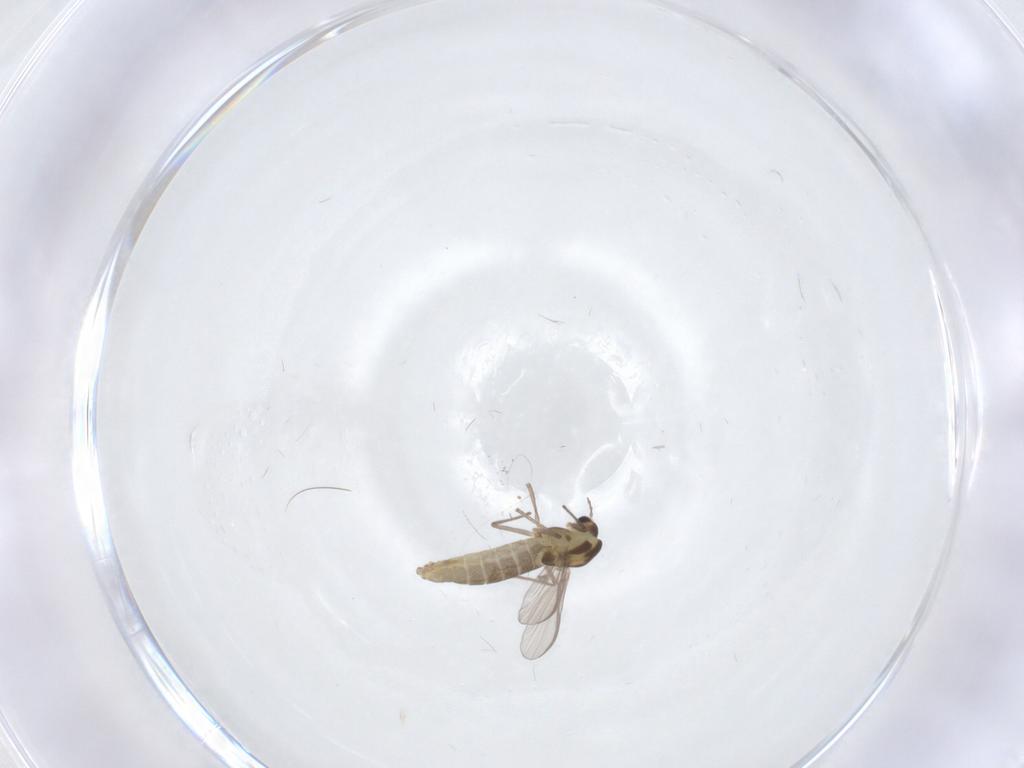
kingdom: Animalia
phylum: Arthropoda
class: Insecta
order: Diptera
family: Chironomidae
